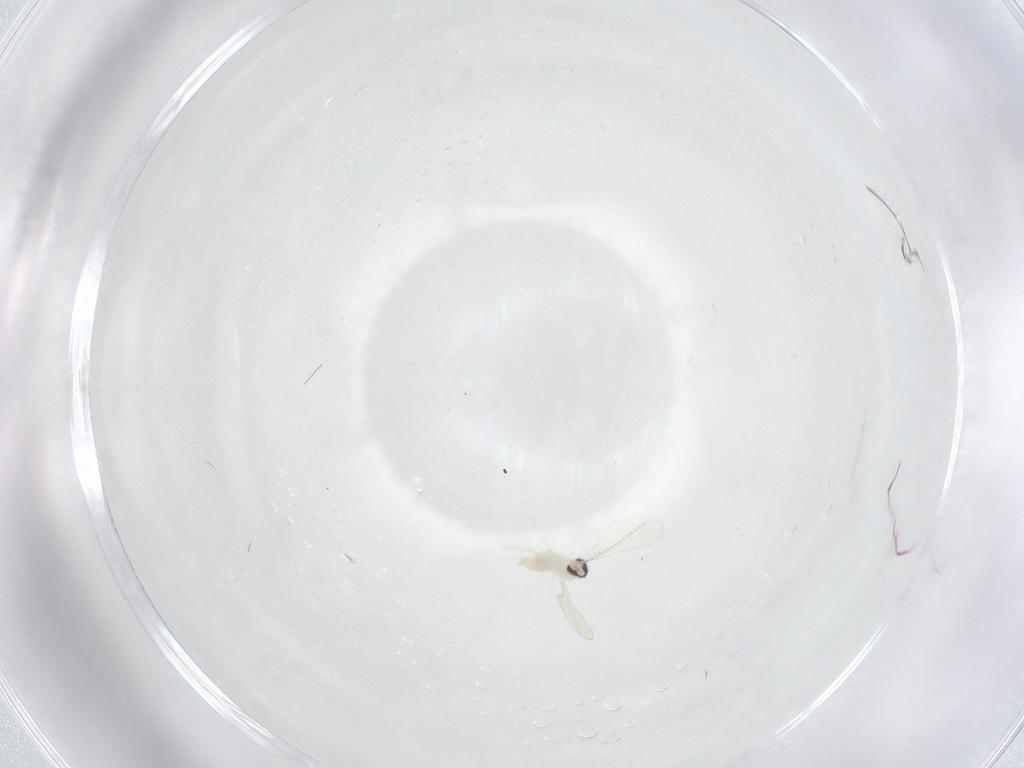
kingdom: Animalia
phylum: Arthropoda
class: Insecta
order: Diptera
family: Cecidomyiidae
